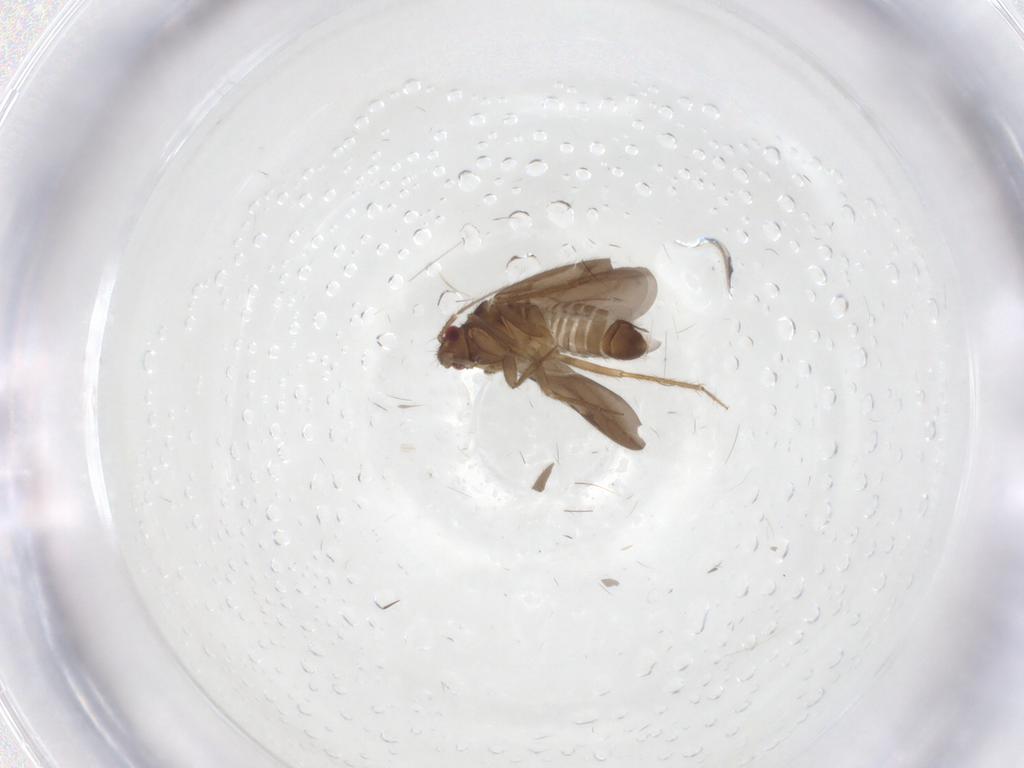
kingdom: Animalia
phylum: Arthropoda
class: Insecta
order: Hemiptera
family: Ceratocombidae
